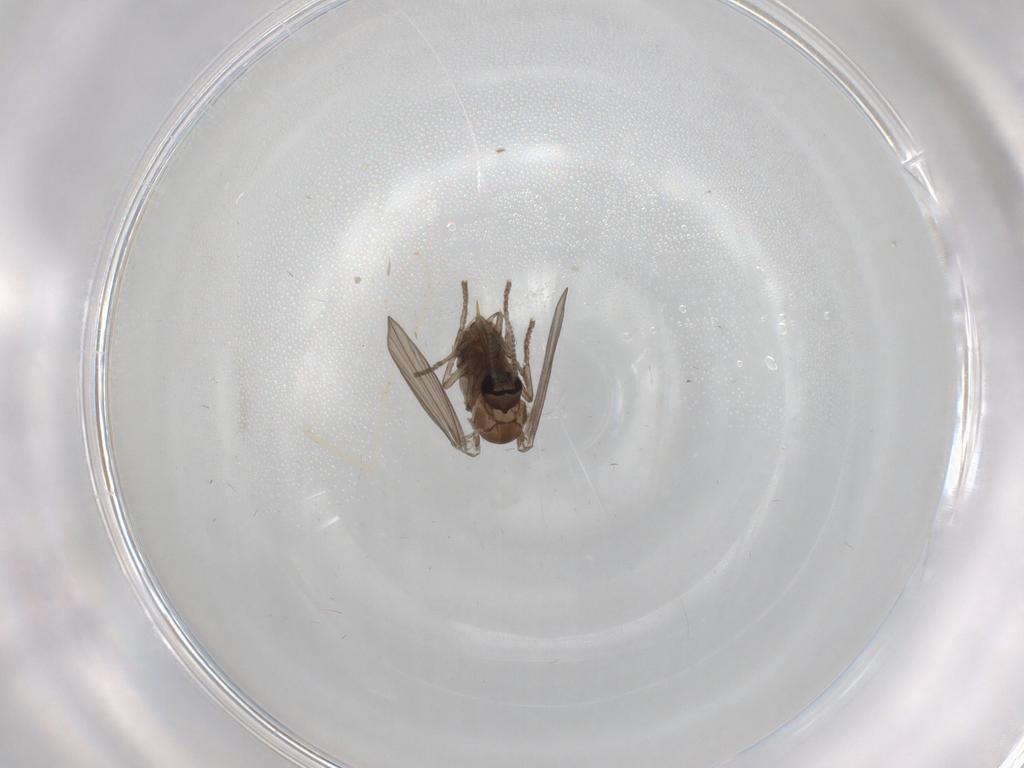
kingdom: Animalia
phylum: Arthropoda
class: Insecta
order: Diptera
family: Psychodidae
